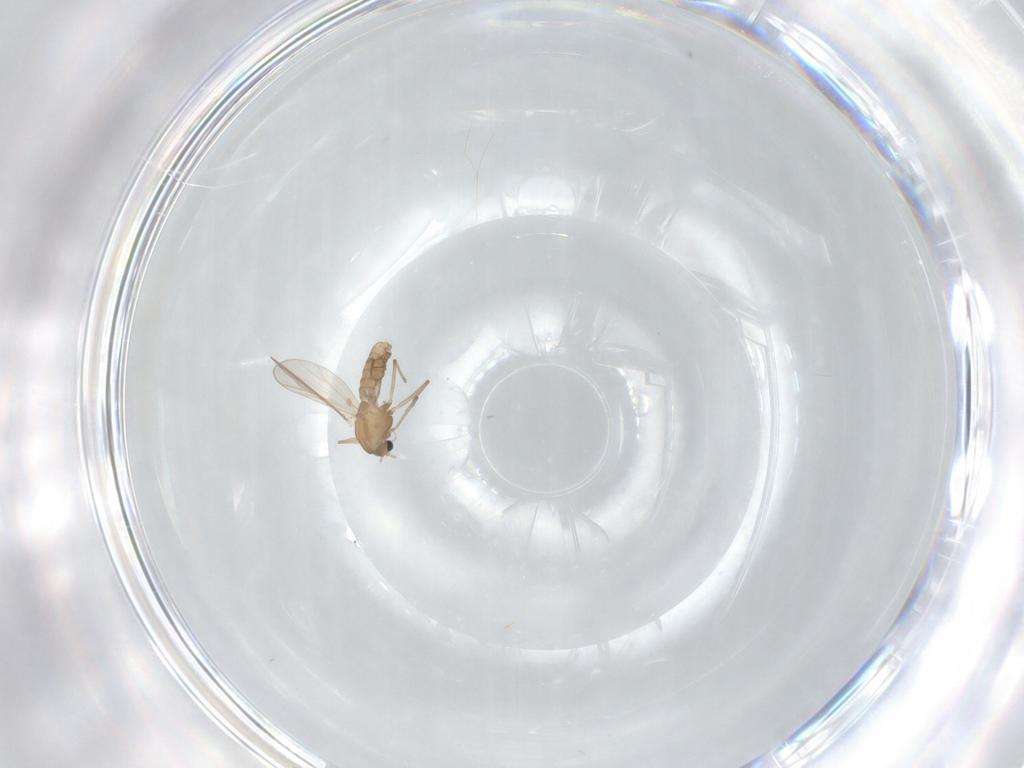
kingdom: Animalia
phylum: Arthropoda
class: Insecta
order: Diptera
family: Chironomidae
